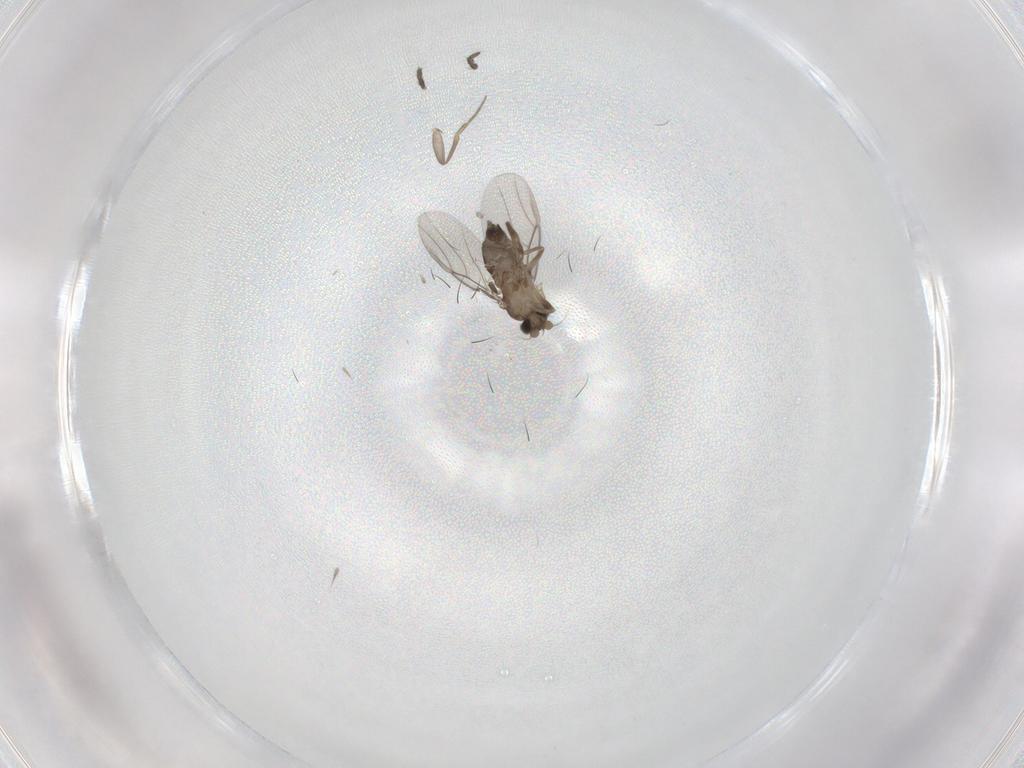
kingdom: Animalia
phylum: Arthropoda
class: Insecta
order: Diptera
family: Phoridae
